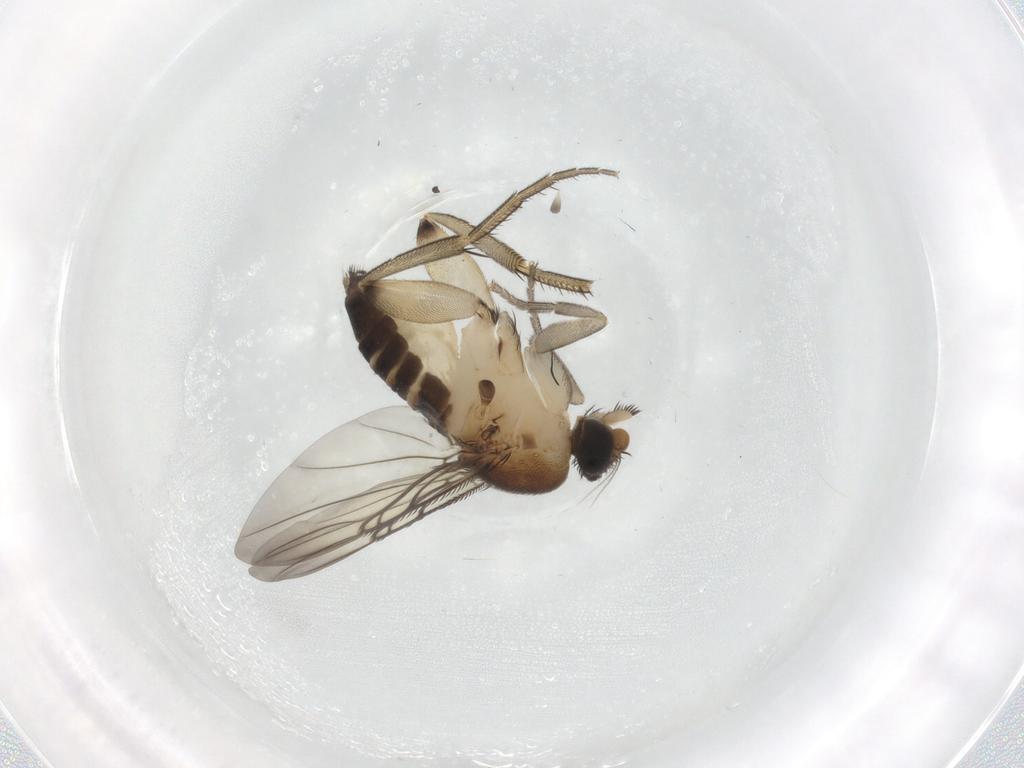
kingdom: Animalia
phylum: Arthropoda
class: Insecta
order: Diptera
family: Phoridae
